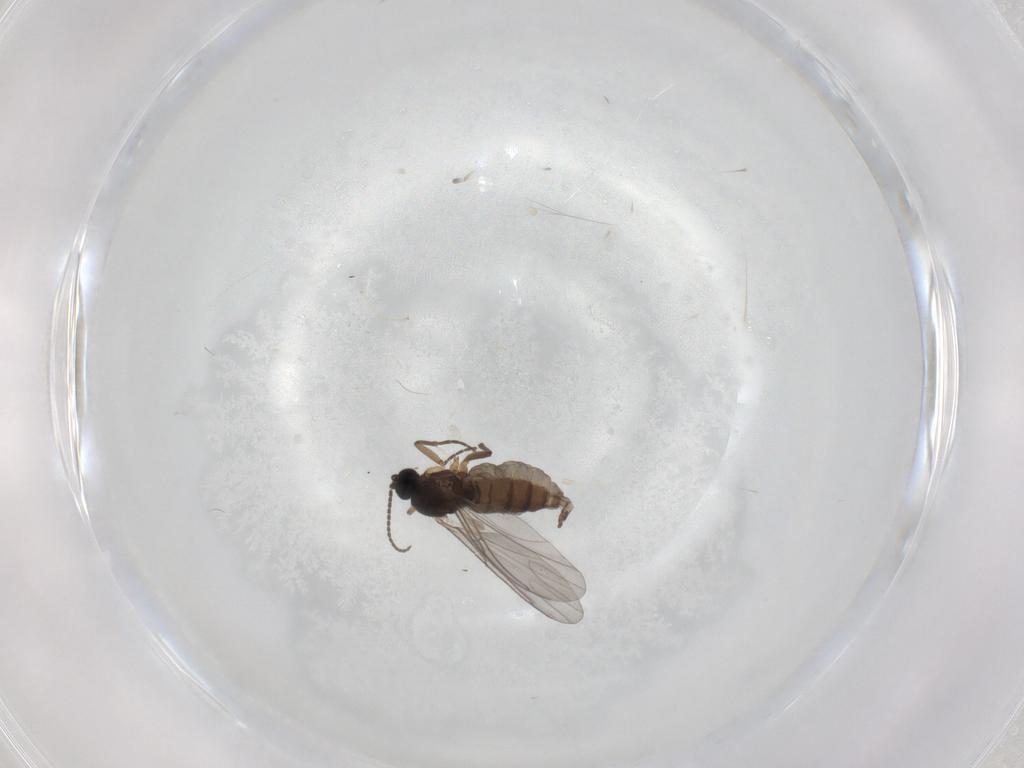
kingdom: Animalia
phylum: Arthropoda
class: Insecta
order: Diptera
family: Sciaridae
